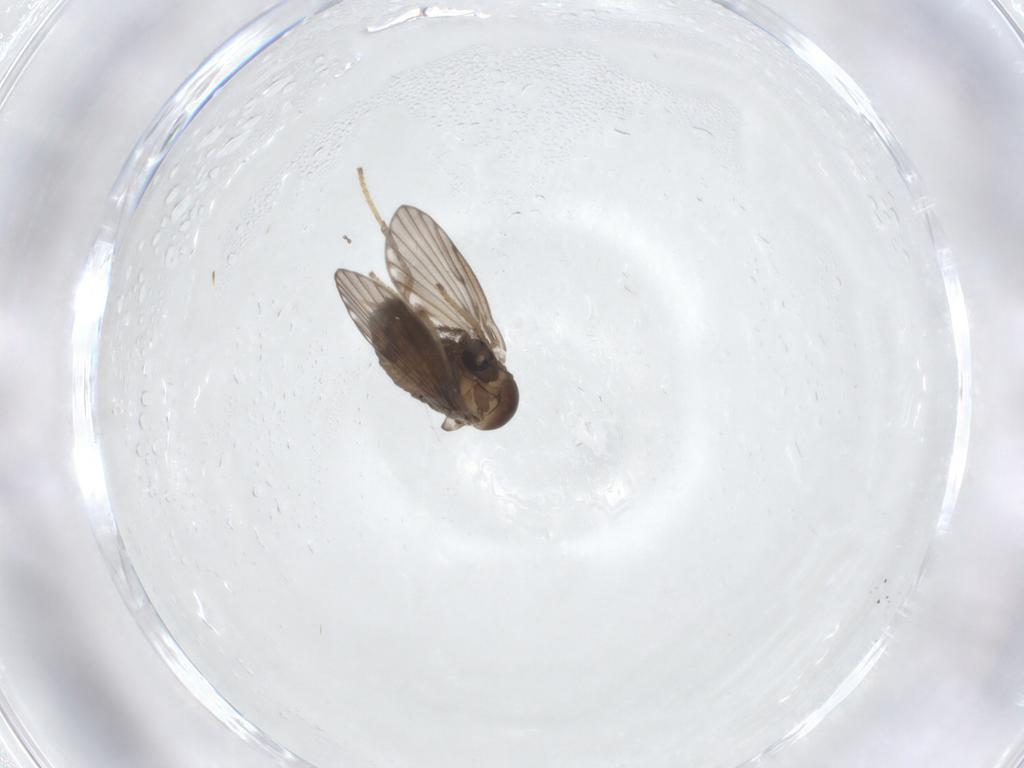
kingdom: Animalia
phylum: Arthropoda
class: Insecta
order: Diptera
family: Psychodidae
